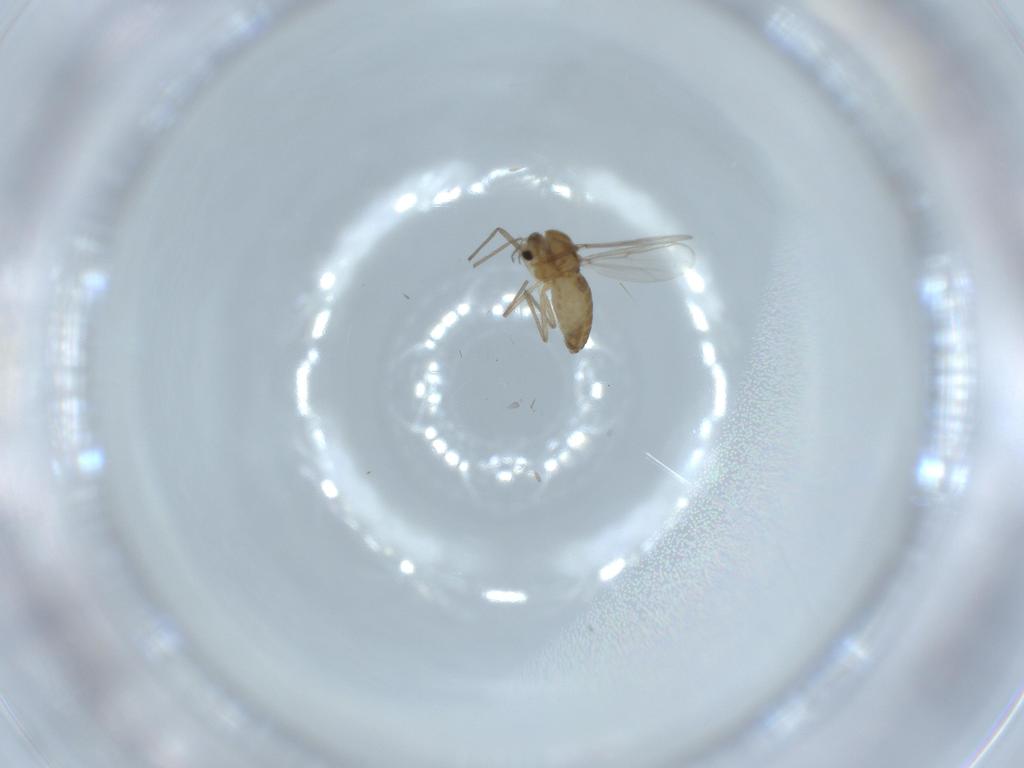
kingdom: Animalia
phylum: Arthropoda
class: Insecta
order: Diptera
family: Chironomidae
